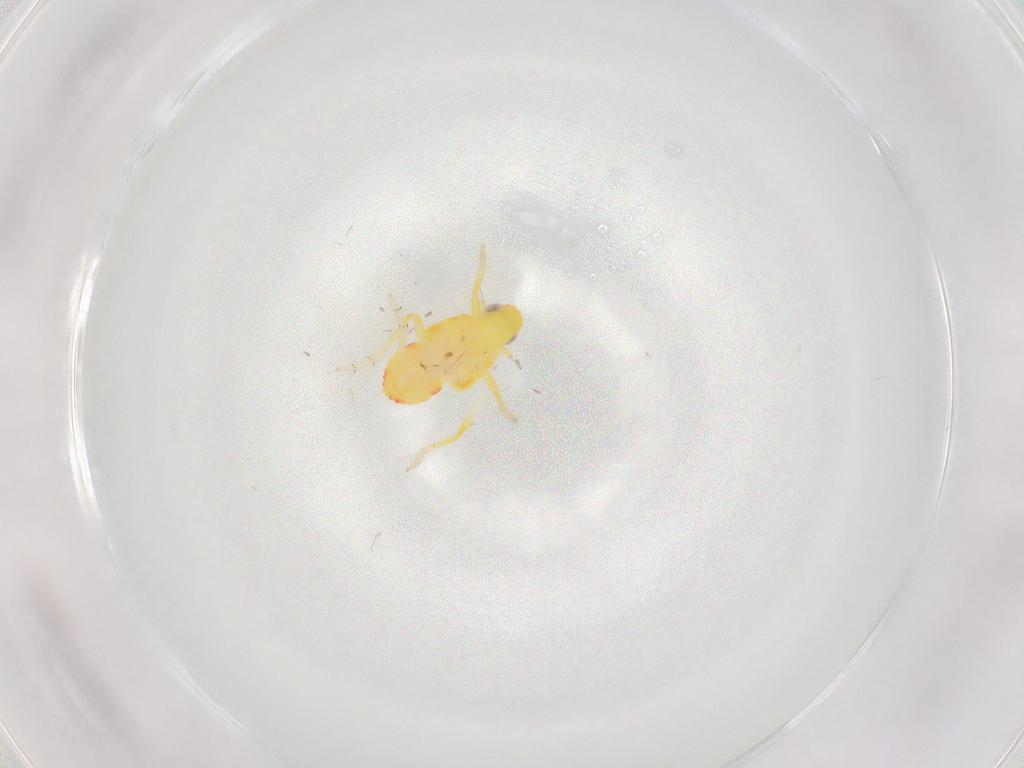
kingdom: Animalia
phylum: Arthropoda
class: Insecta
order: Hemiptera
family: Tropiduchidae
